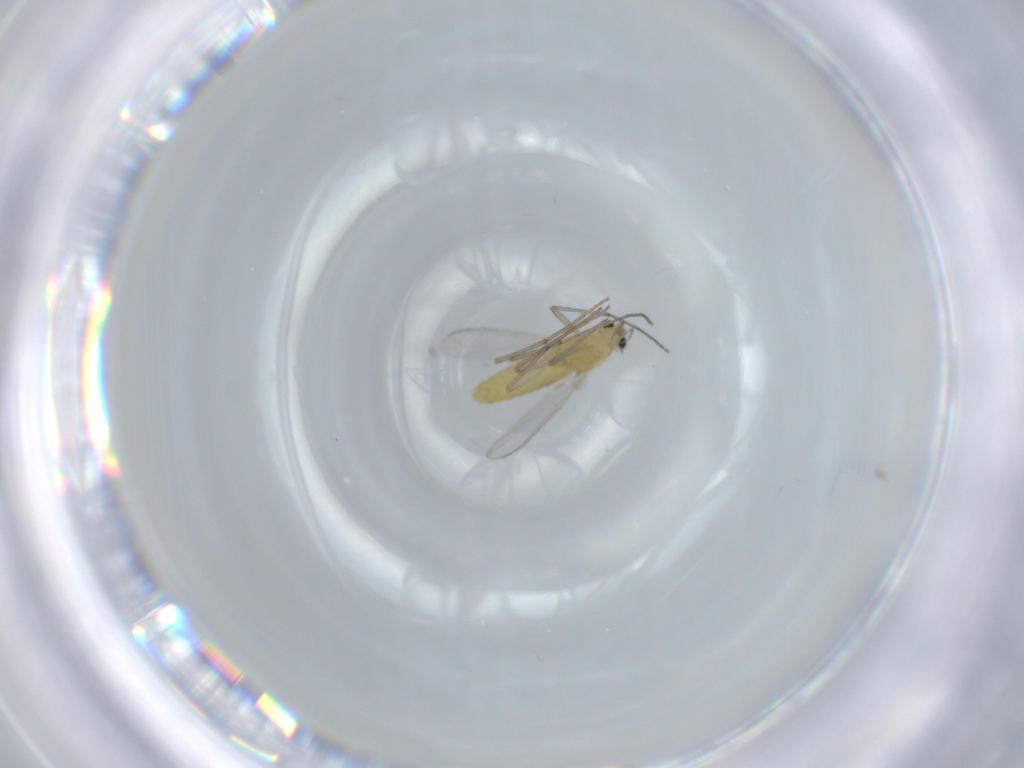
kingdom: Animalia
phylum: Arthropoda
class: Insecta
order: Diptera
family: Chironomidae
